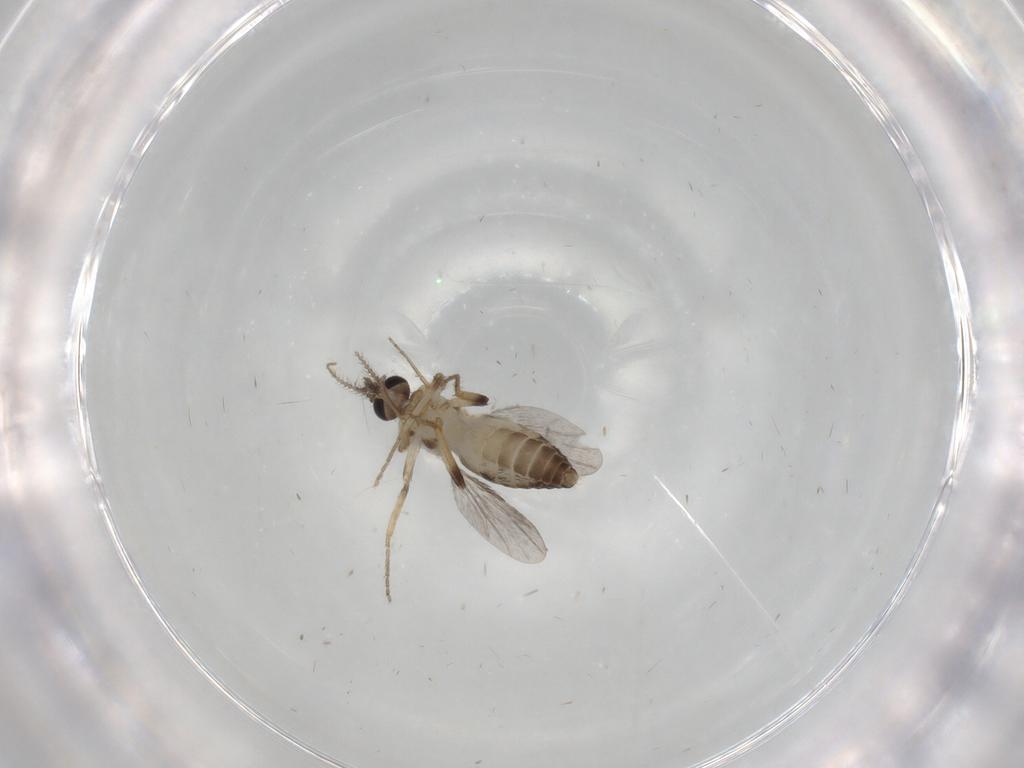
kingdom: Animalia
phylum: Arthropoda
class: Insecta
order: Diptera
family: Ceratopogonidae
